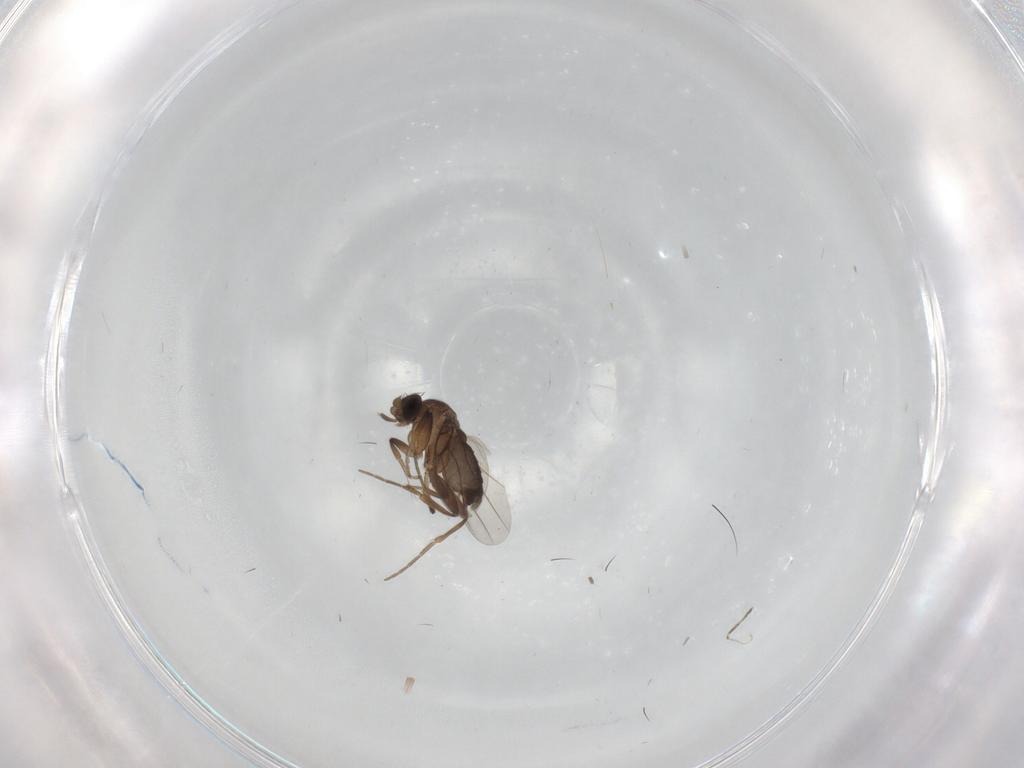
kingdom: Animalia
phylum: Arthropoda
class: Insecta
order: Diptera
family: Phoridae
